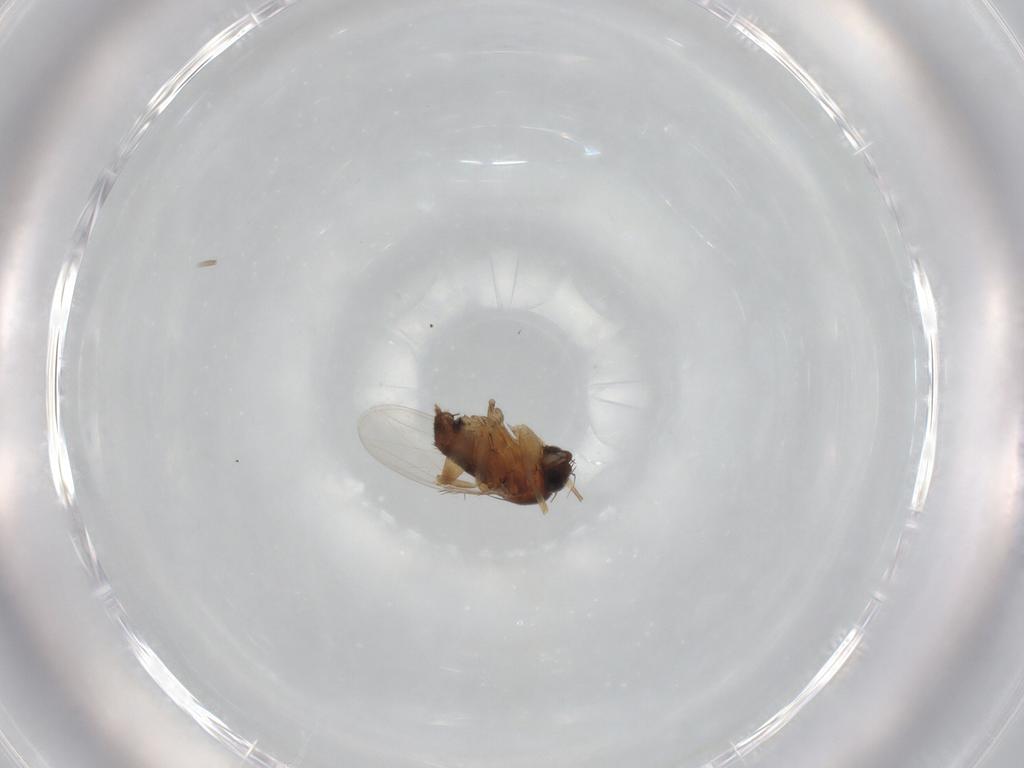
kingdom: Animalia
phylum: Arthropoda
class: Insecta
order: Diptera
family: Phoridae
